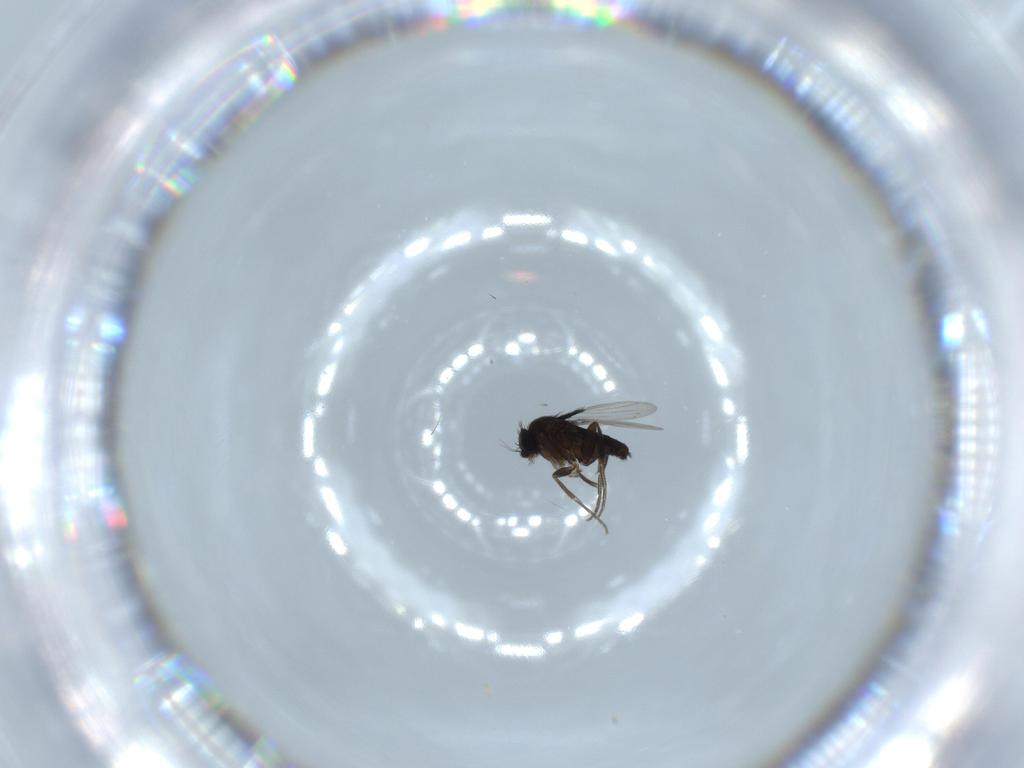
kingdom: Animalia
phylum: Arthropoda
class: Insecta
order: Diptera
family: Phoridae
